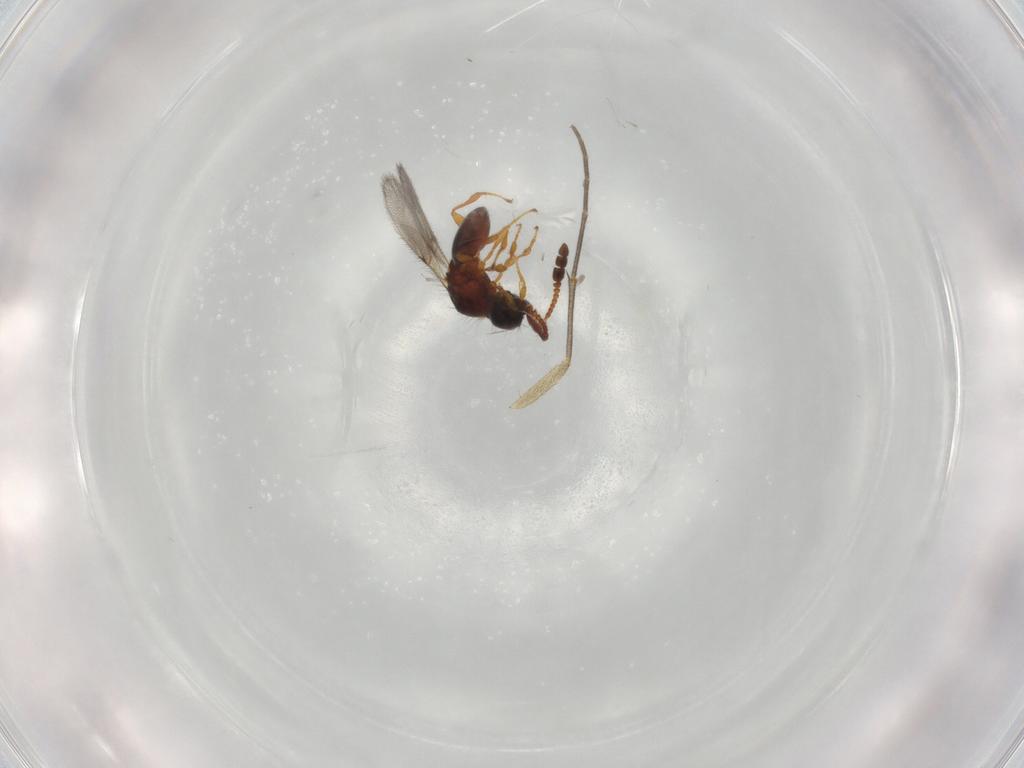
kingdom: Animalia
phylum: Arthropoda
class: Insecta
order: Hymenoptera
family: Diapriidae
